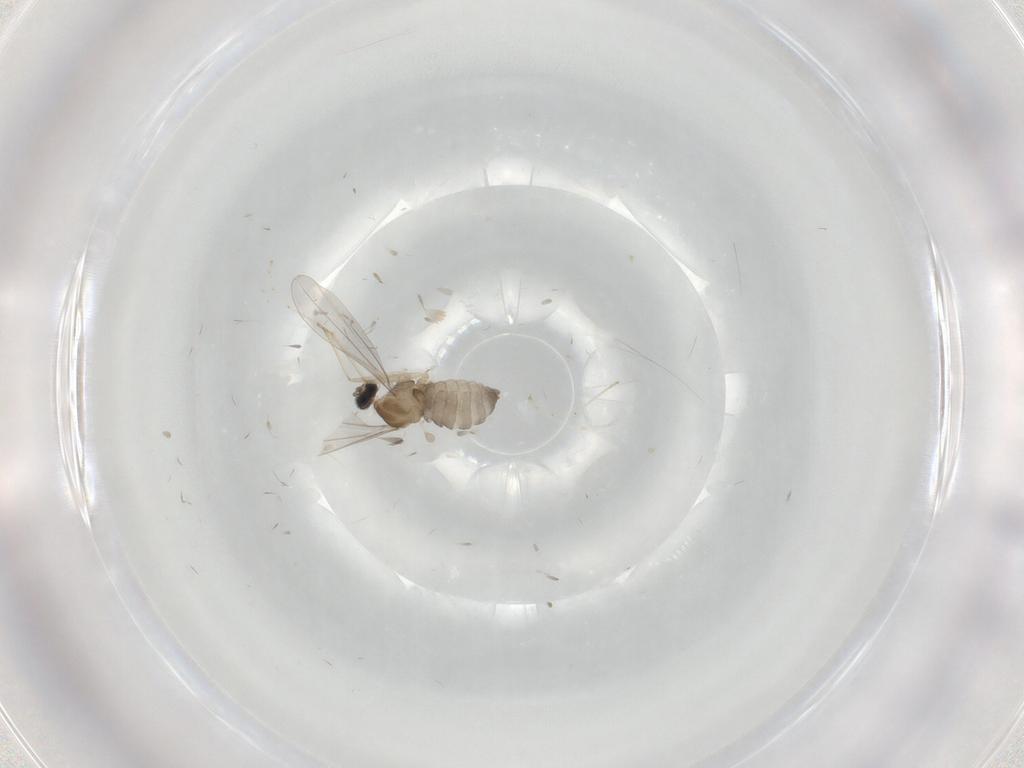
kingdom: Animalia
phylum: Arthropoda
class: Insecta
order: Diptera
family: Cecidomyiidae
